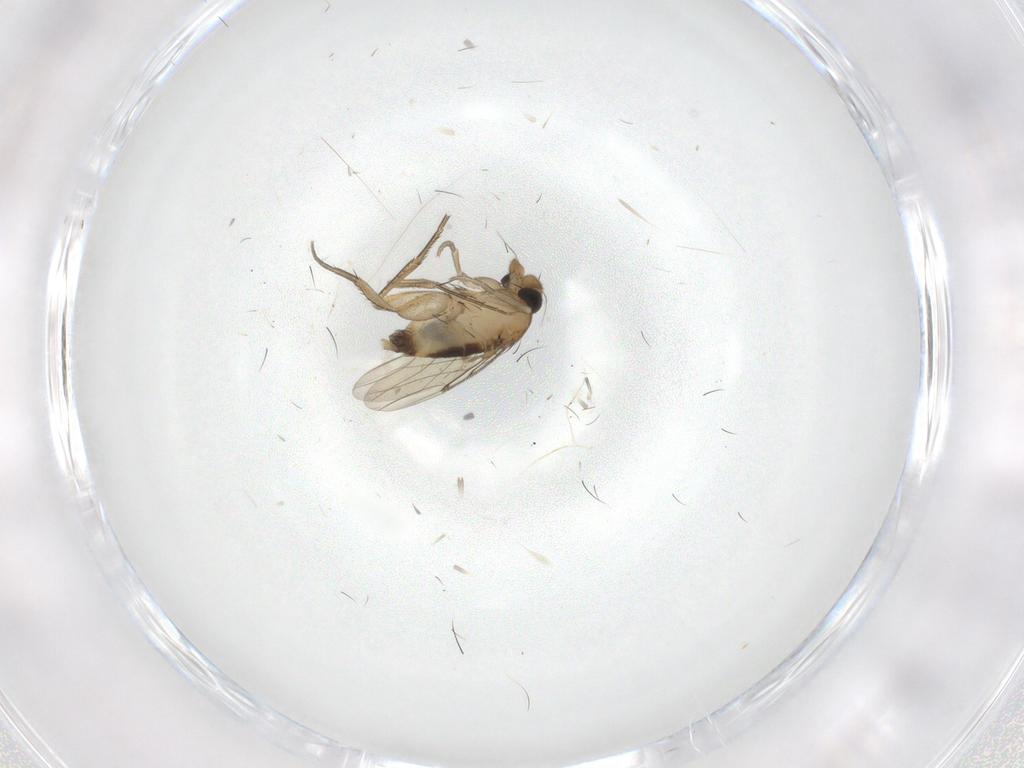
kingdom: Animalia
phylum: Arthropoda
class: Insecta
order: Diptera
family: Phoridae
